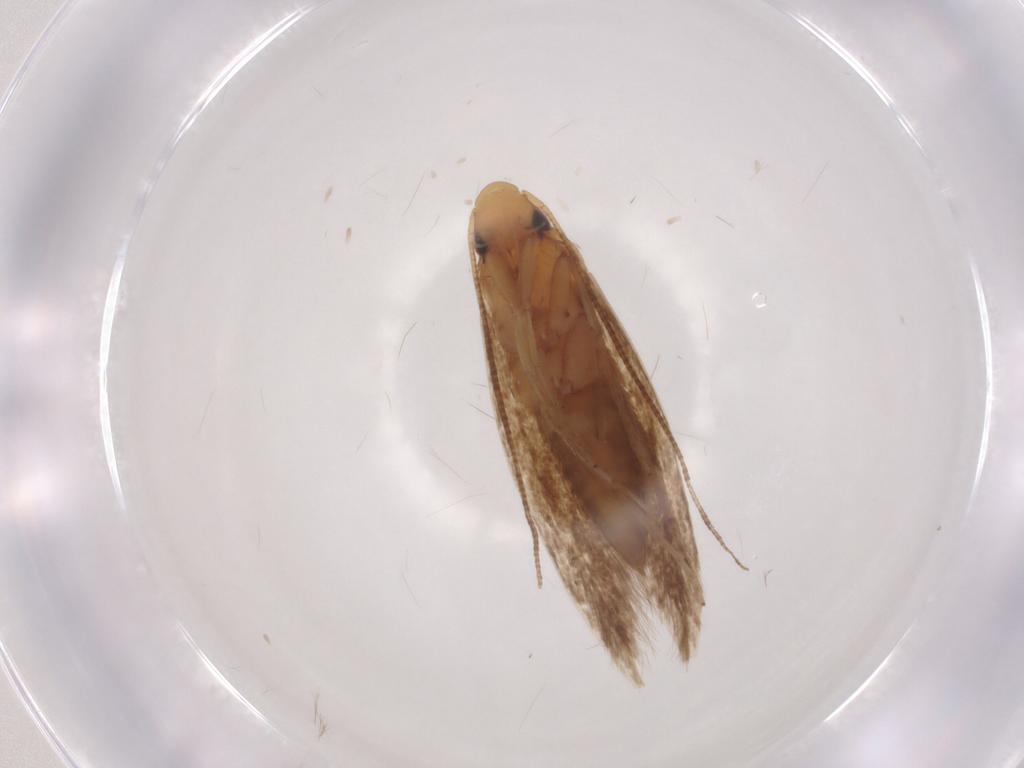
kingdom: Animalia
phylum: Arthropoda
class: Insecta
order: Lepidoptera
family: Tineidae
